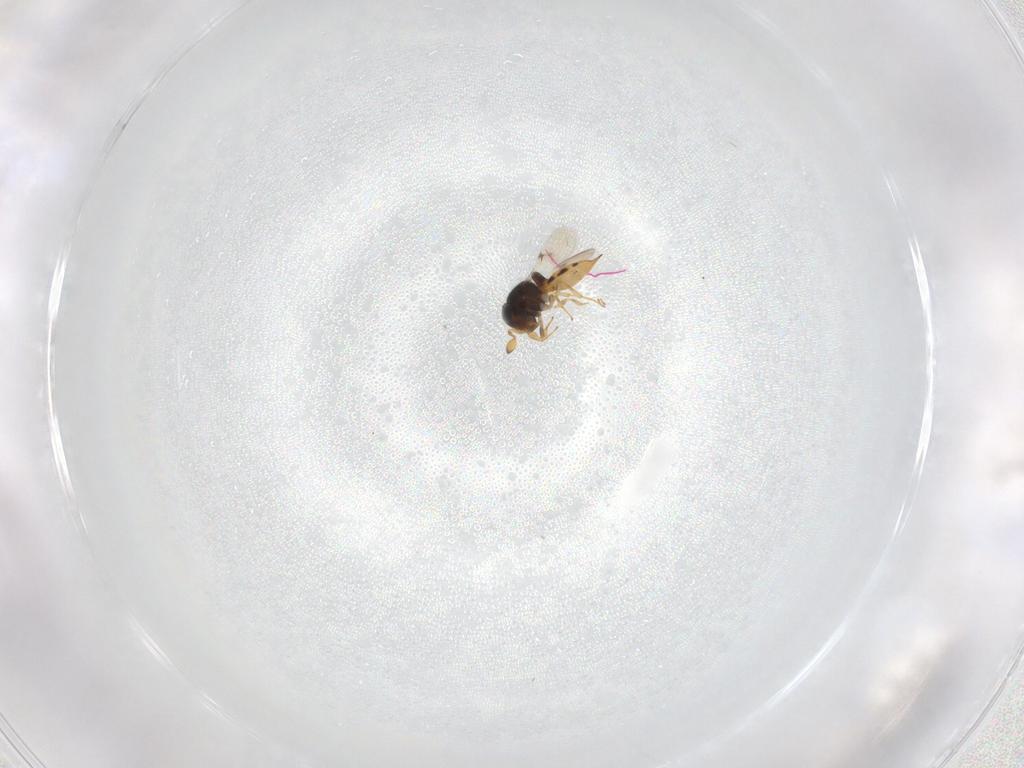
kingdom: Animalia
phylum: Arthropoda
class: Insecta
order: Hymenoptera
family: Scelionidae
